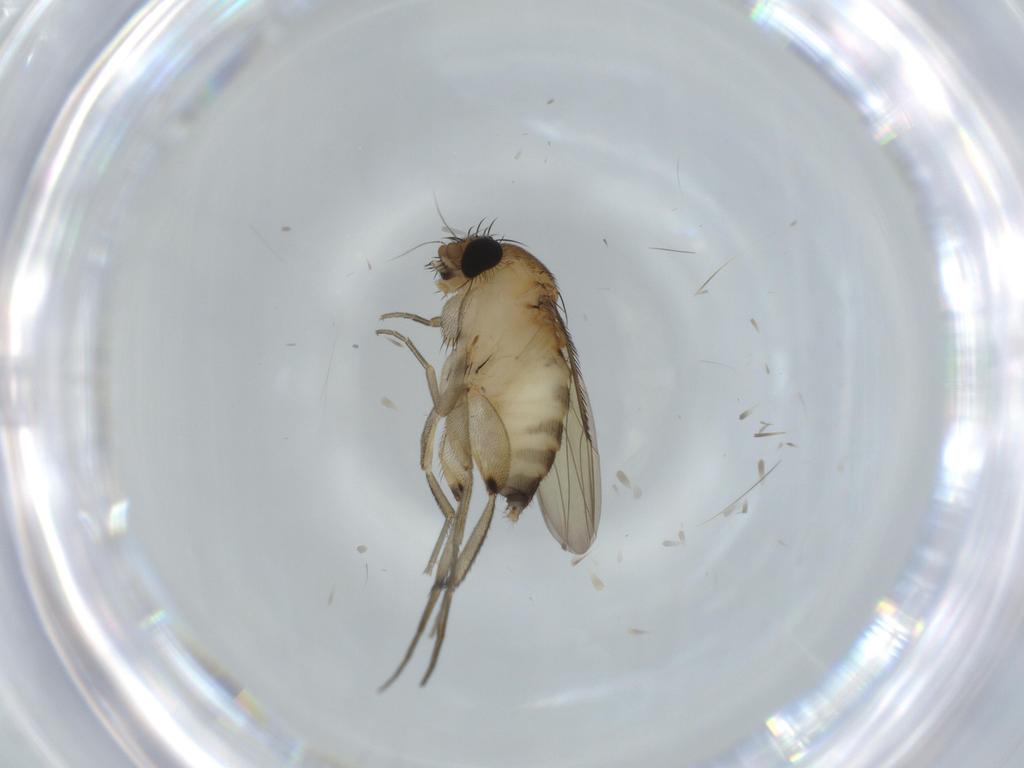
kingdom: Animalia
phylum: Arthropoda
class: Insecta
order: Diptera
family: Phoridae
